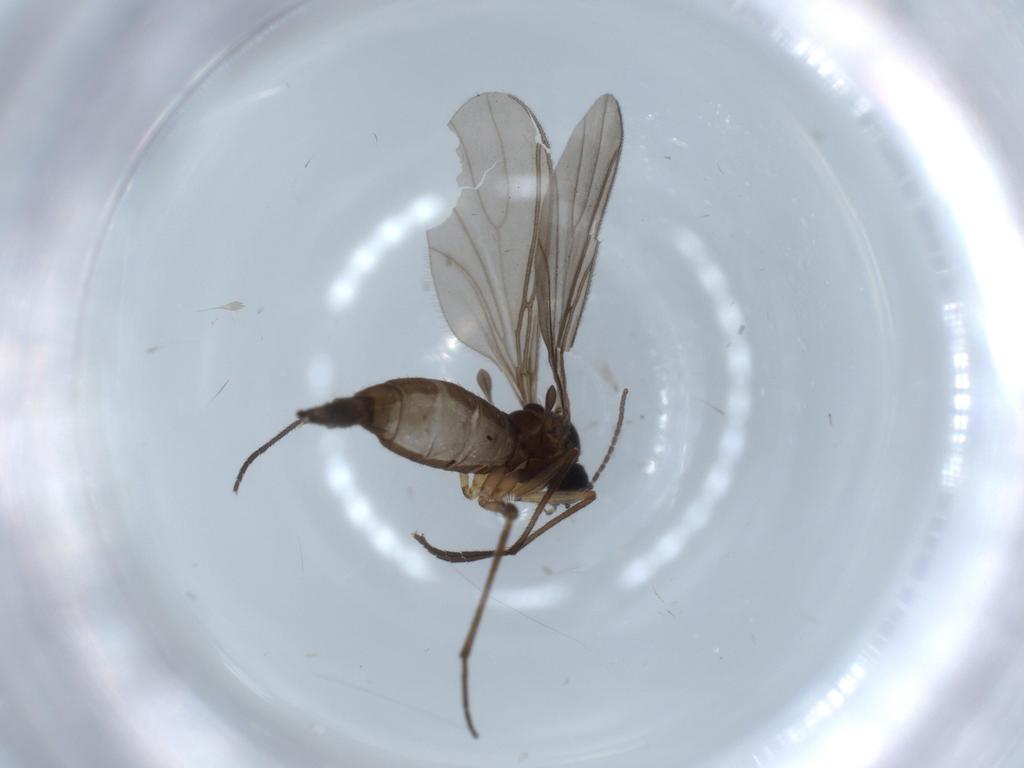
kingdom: Animalia
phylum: Arthropoda
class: Insecta
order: Diptera
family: Sciaridae
